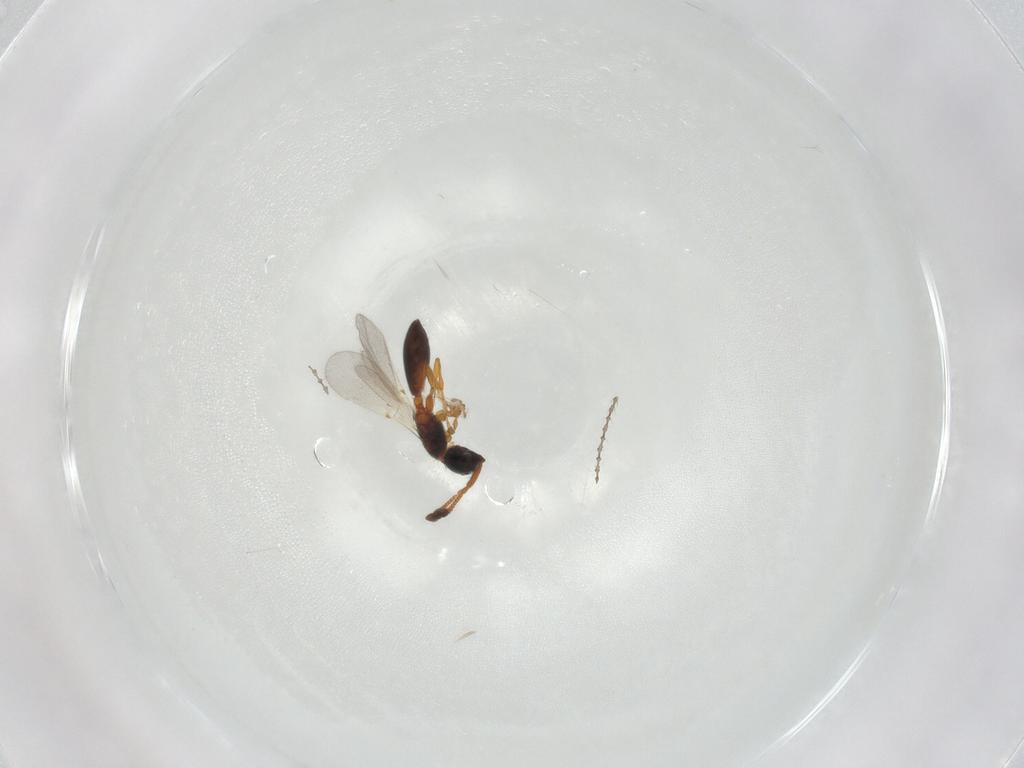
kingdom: Animalia
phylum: Arthropoda
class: Insecta
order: Hymenoptera
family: Diapriidae
